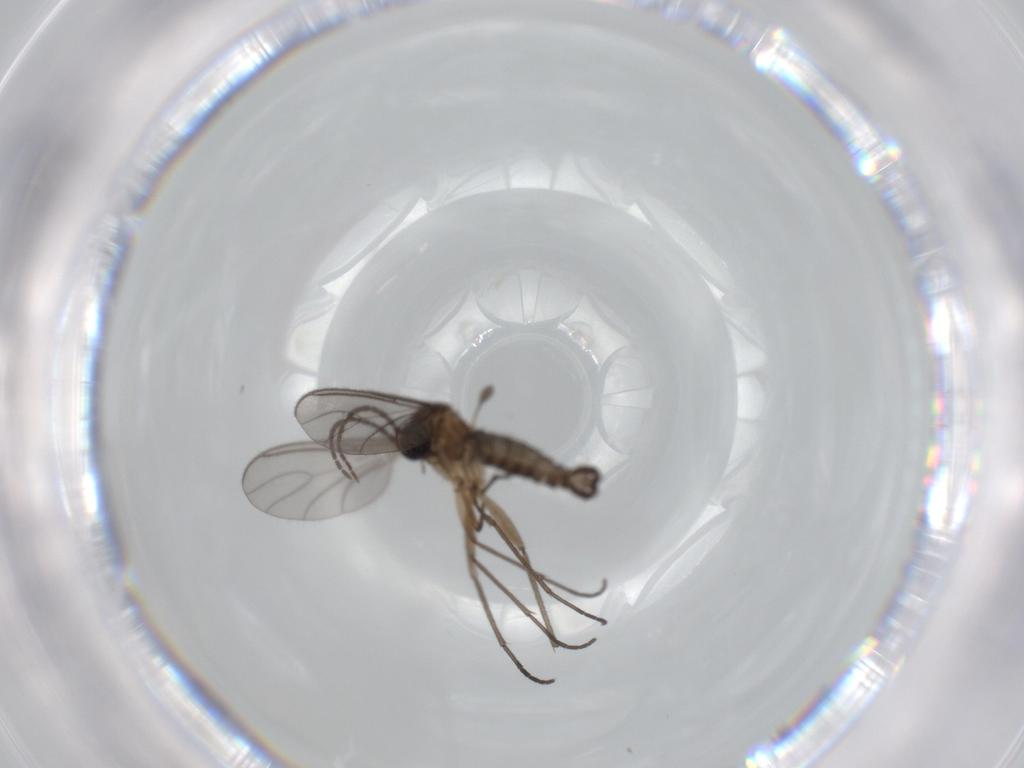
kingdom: Animalia
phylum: Arthropoda
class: Insecta
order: Diptera
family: Sciaridae
